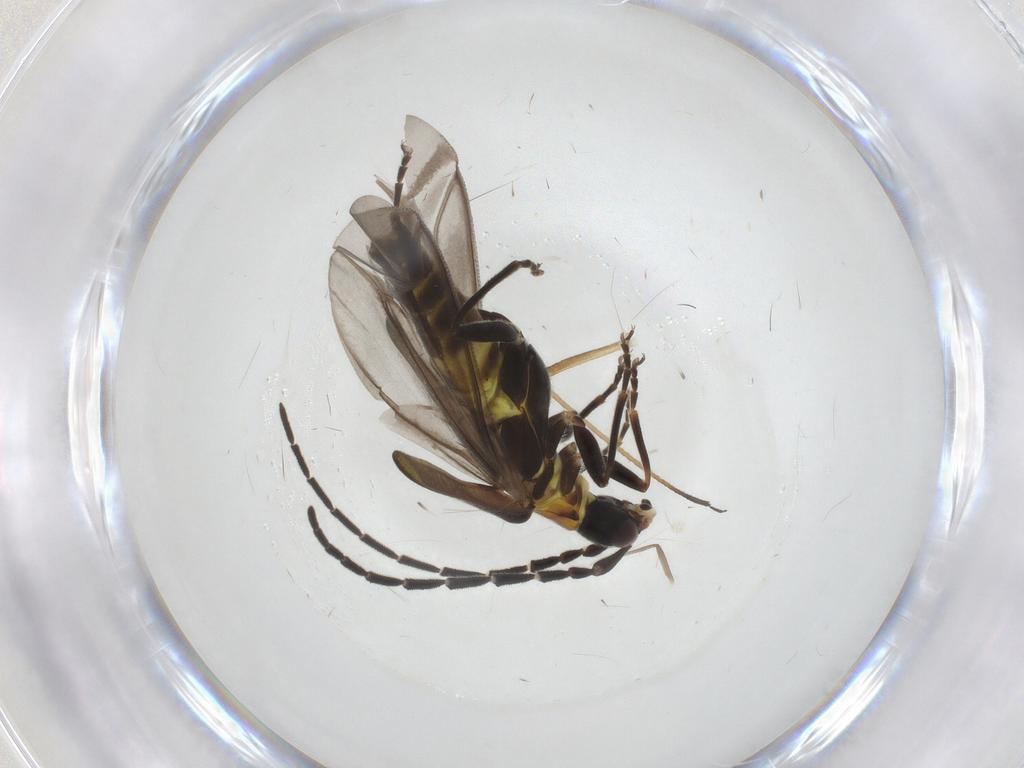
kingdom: Animalia
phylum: Arthropoda
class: Insecta
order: Coleoptera
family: Cantharidae
